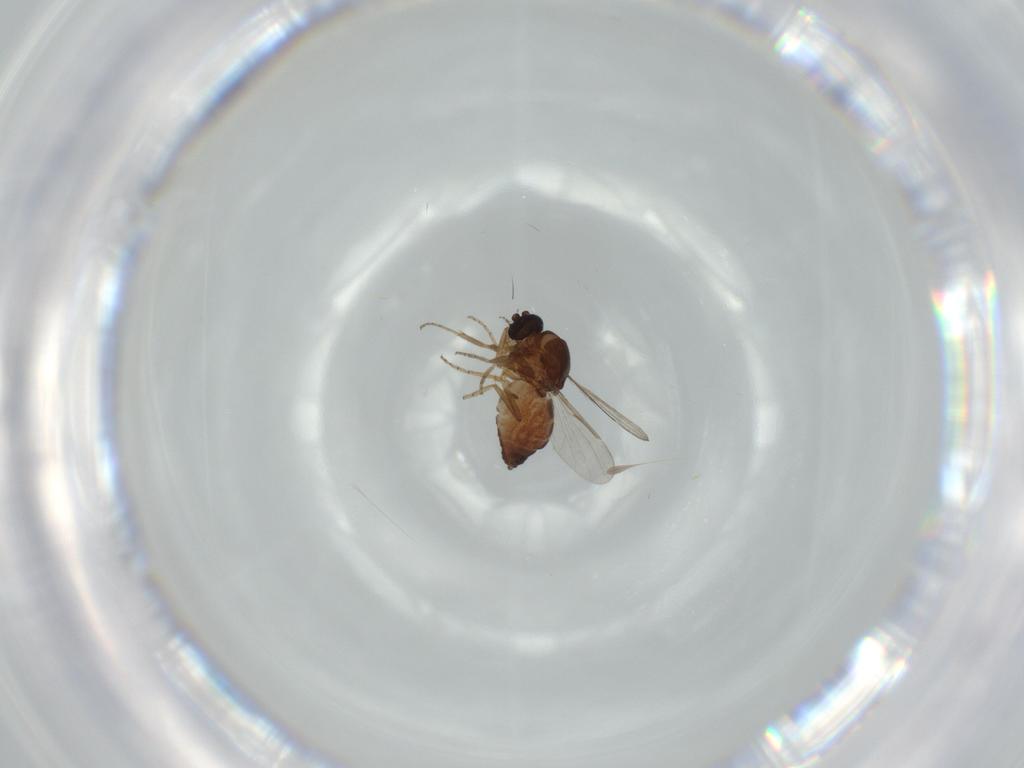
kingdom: Animalia
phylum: Arthropoda
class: Insecta
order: Diptera
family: Ceratopogonidae
